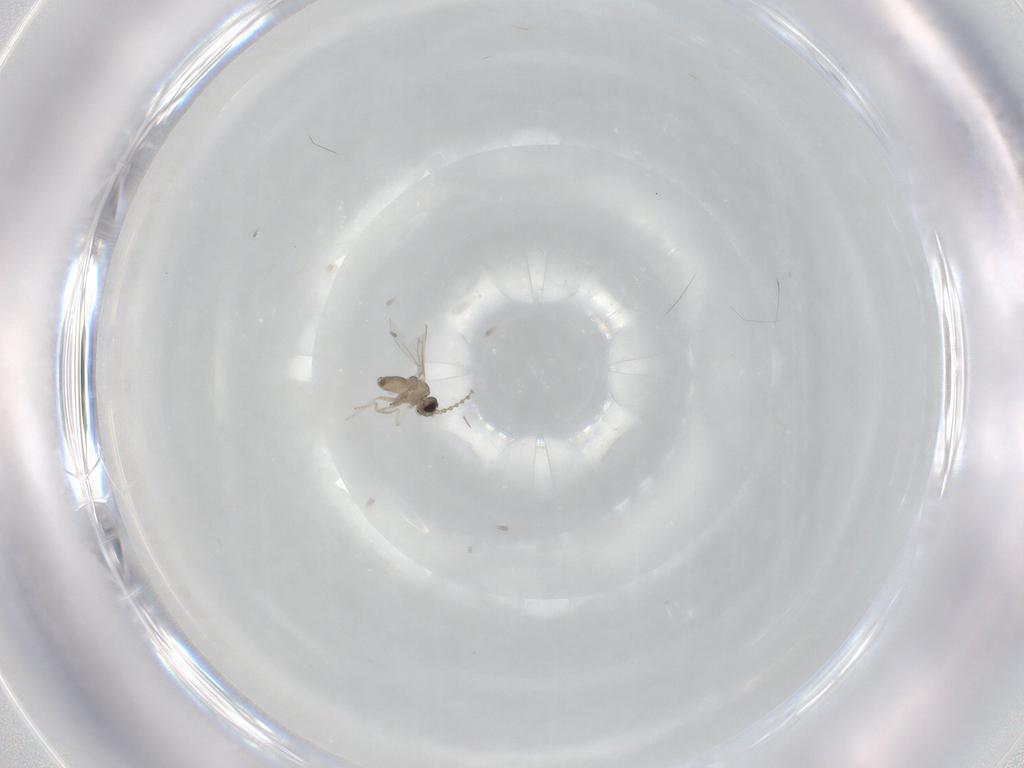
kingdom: Animalia
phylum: Arthropoda
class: Insecta
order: Diptera
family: Cecidomyiidae
